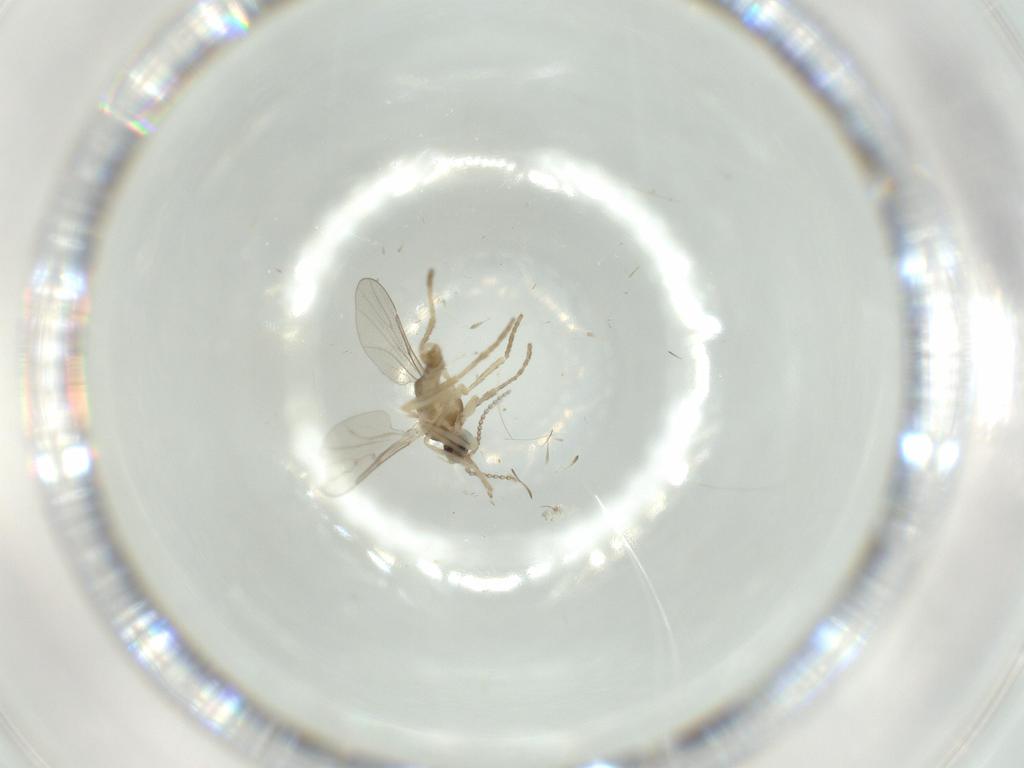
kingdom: Animalia
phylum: Arthropoda
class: Insecta
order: Diptera
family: Cecidomyiidae
